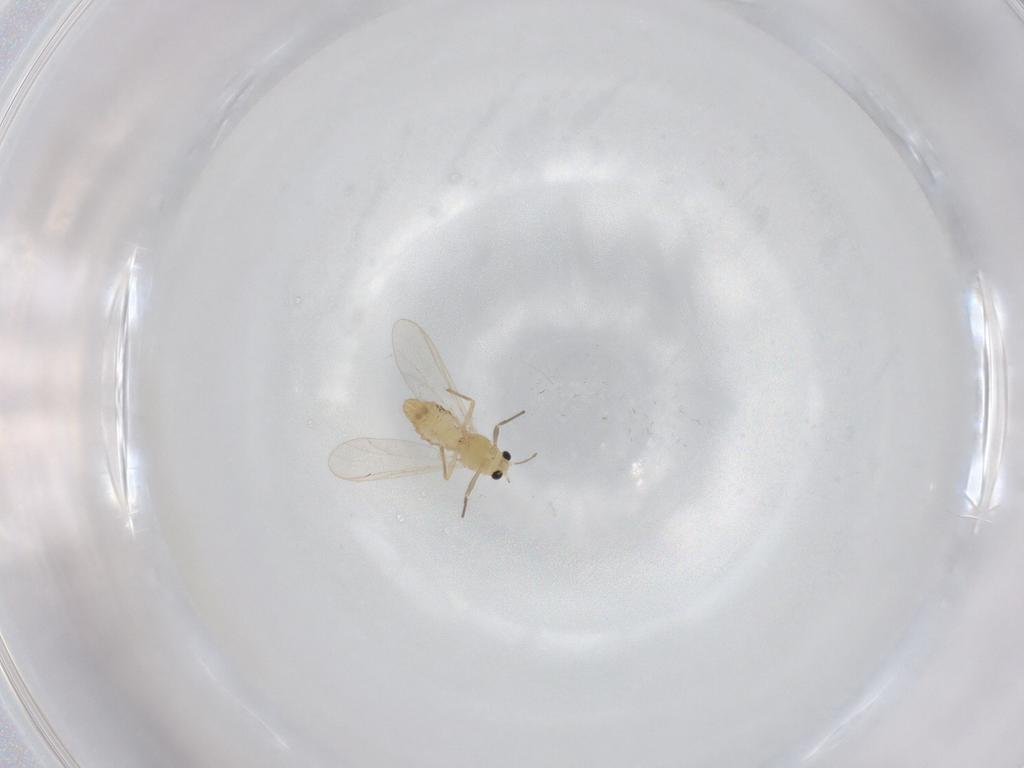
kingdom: Animalia
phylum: Arthropoda
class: Insecta
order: Diptera
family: Chironomidae
